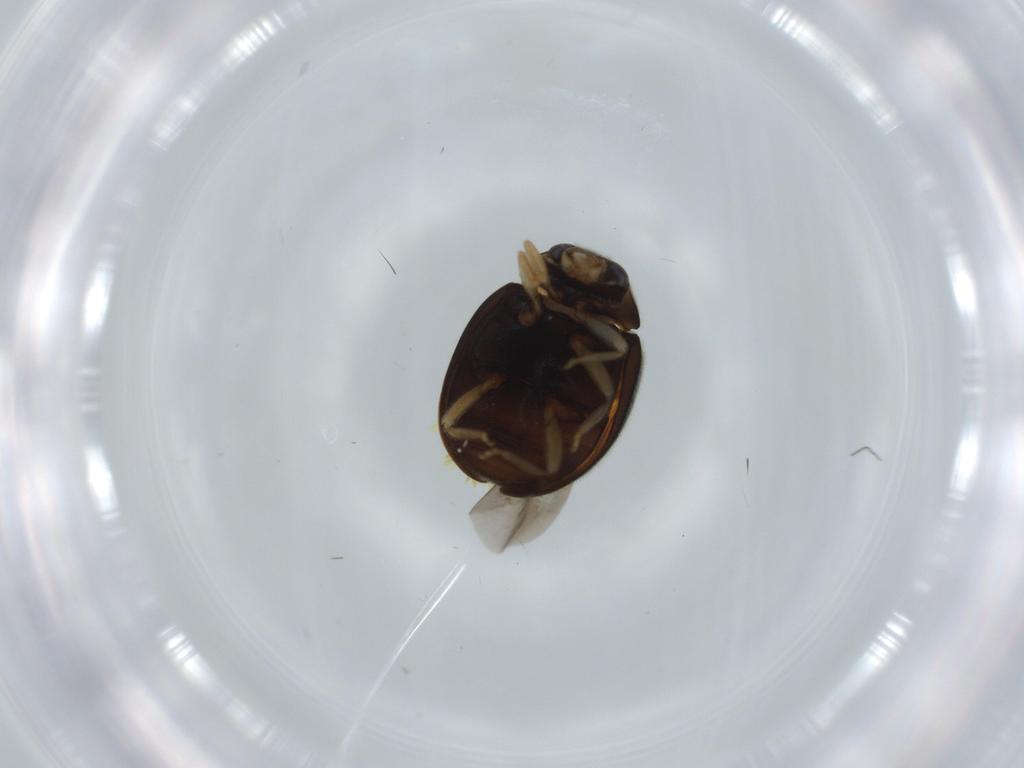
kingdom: Animalia
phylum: Arthropoda
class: Insecta
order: Coleoptera
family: Coccinellidae
